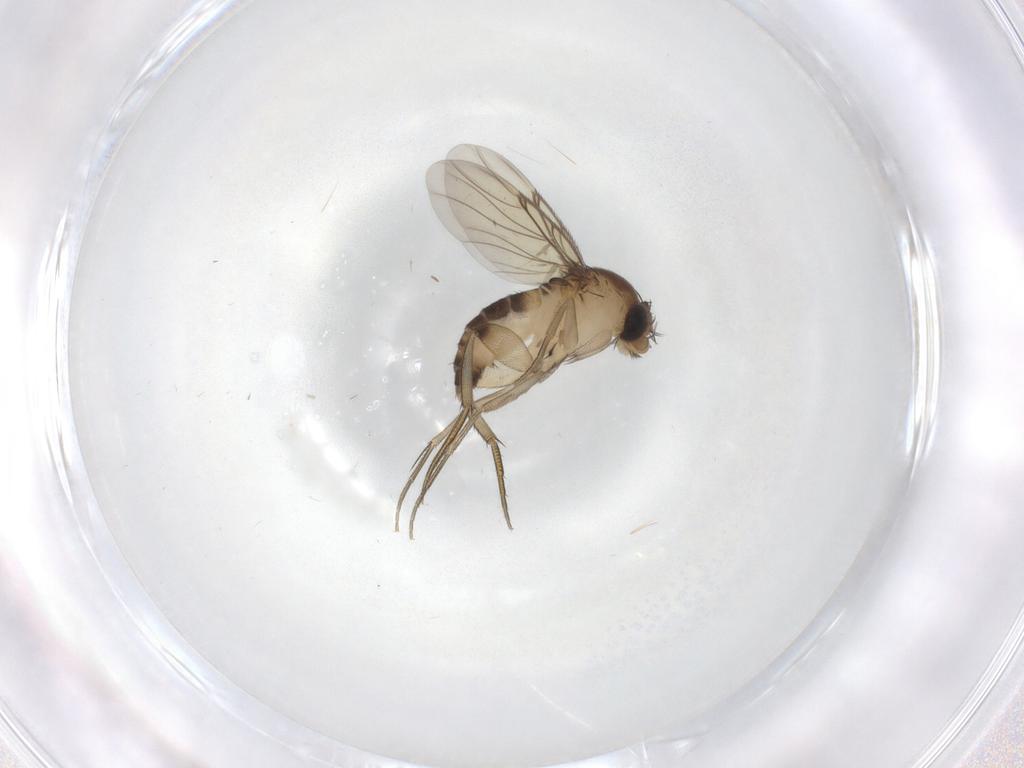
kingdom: Animalia
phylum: Arthropoda
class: Insecta
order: Diptera
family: Phoridae
